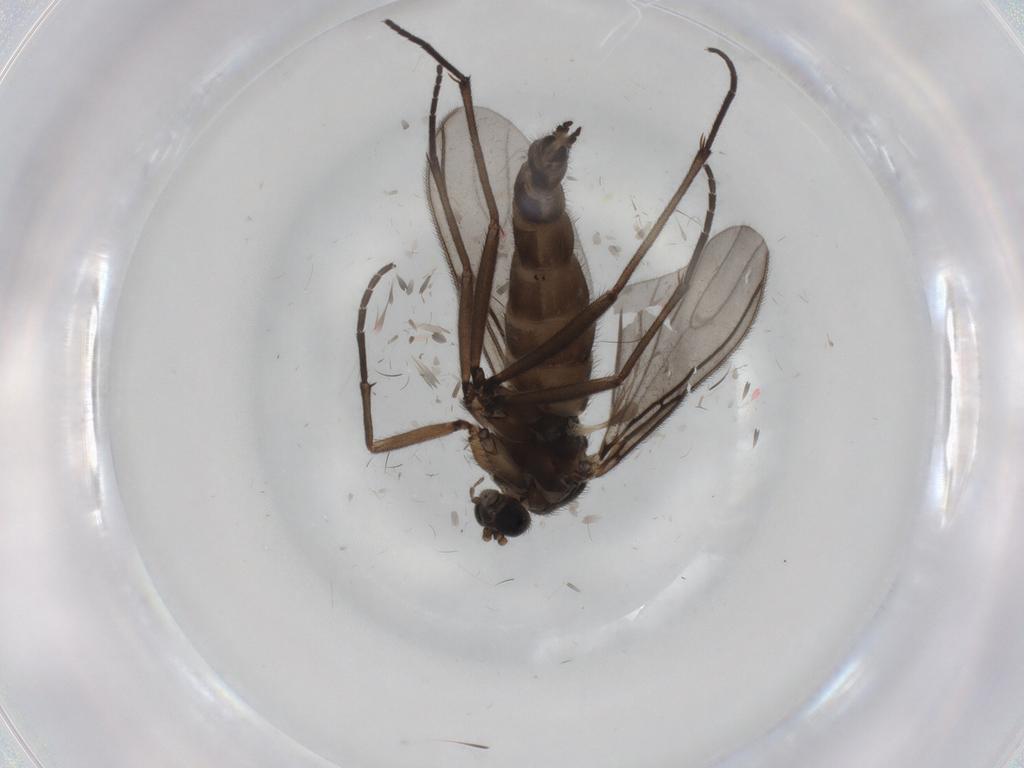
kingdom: Animalia
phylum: Arthropoda
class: Insecta
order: Diptera
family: Sciaridae
